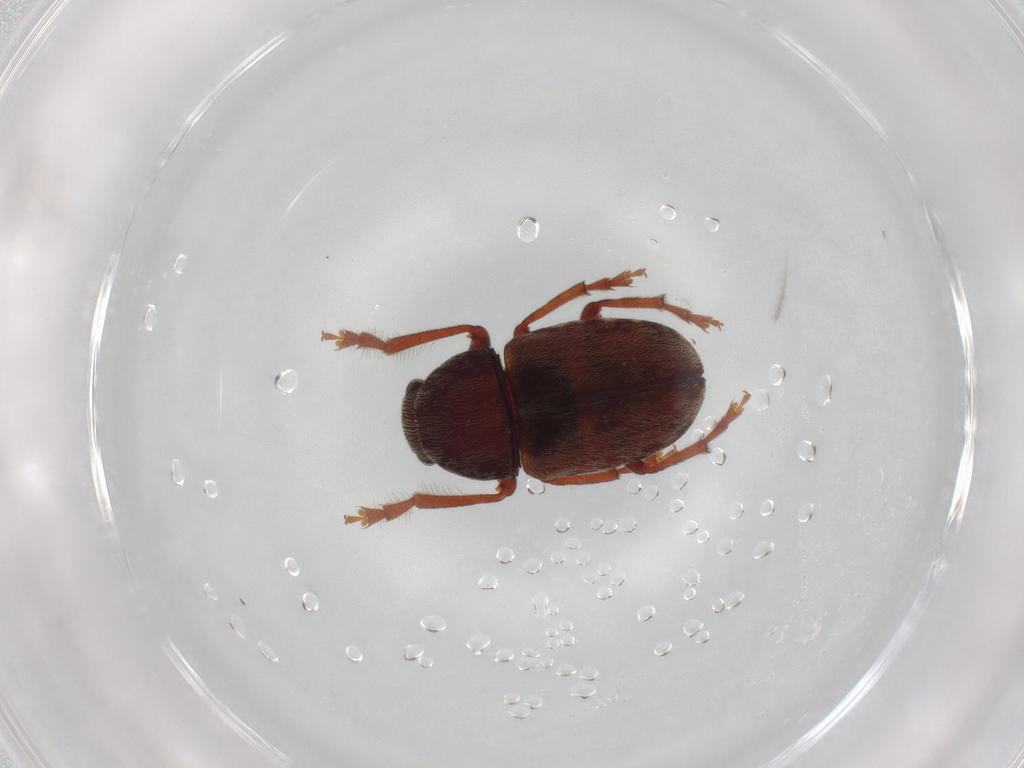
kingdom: Animalia
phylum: Arthropoda
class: Insecta
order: Coleoptera
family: Anthribidae
